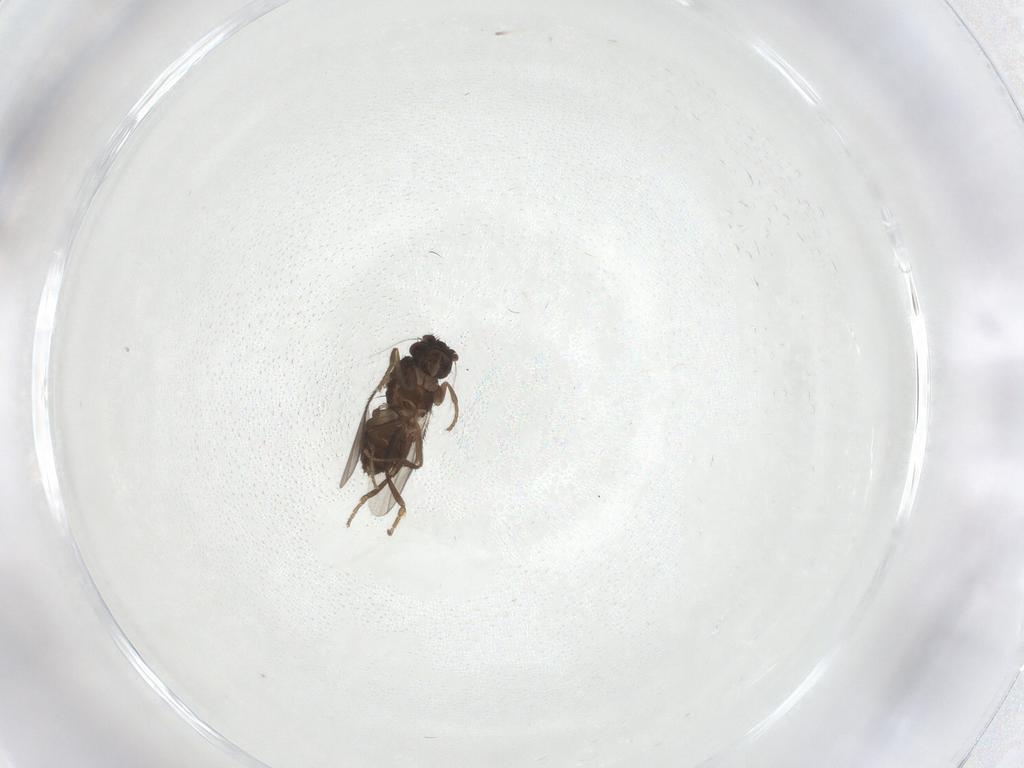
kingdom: Animalia
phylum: Arthropoda
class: Insecta
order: Diptera
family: Sphaeroceridae
